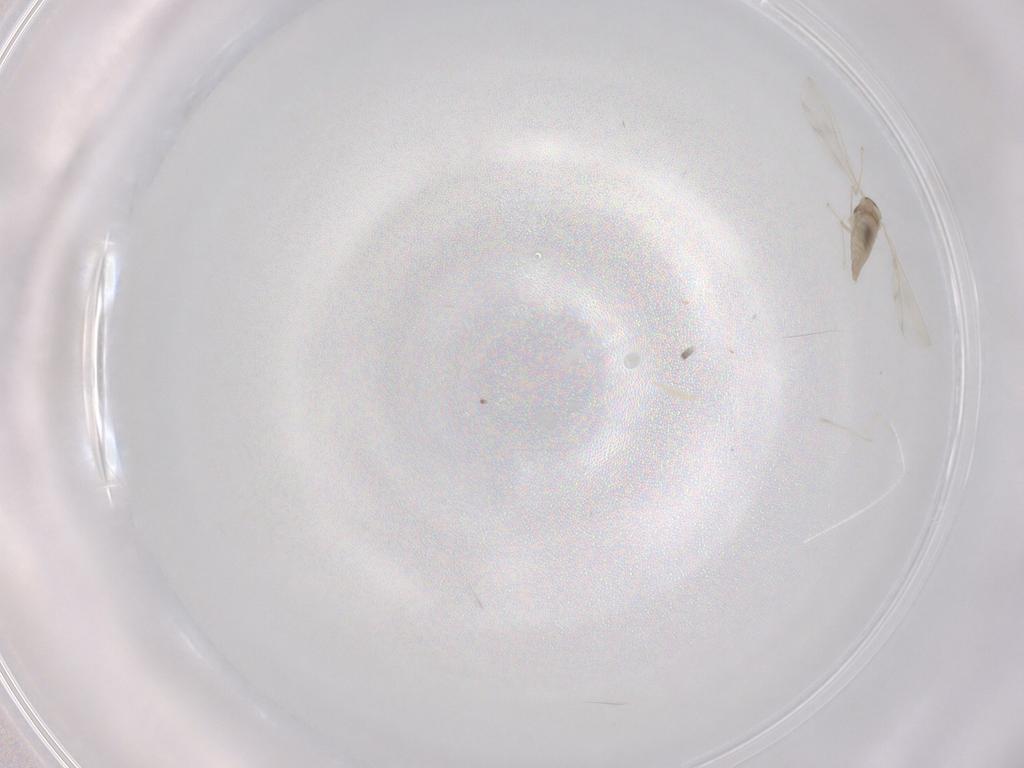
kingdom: Animalia
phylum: Arthropoda
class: Insecta
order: Diptera
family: Cecidomyiidae
